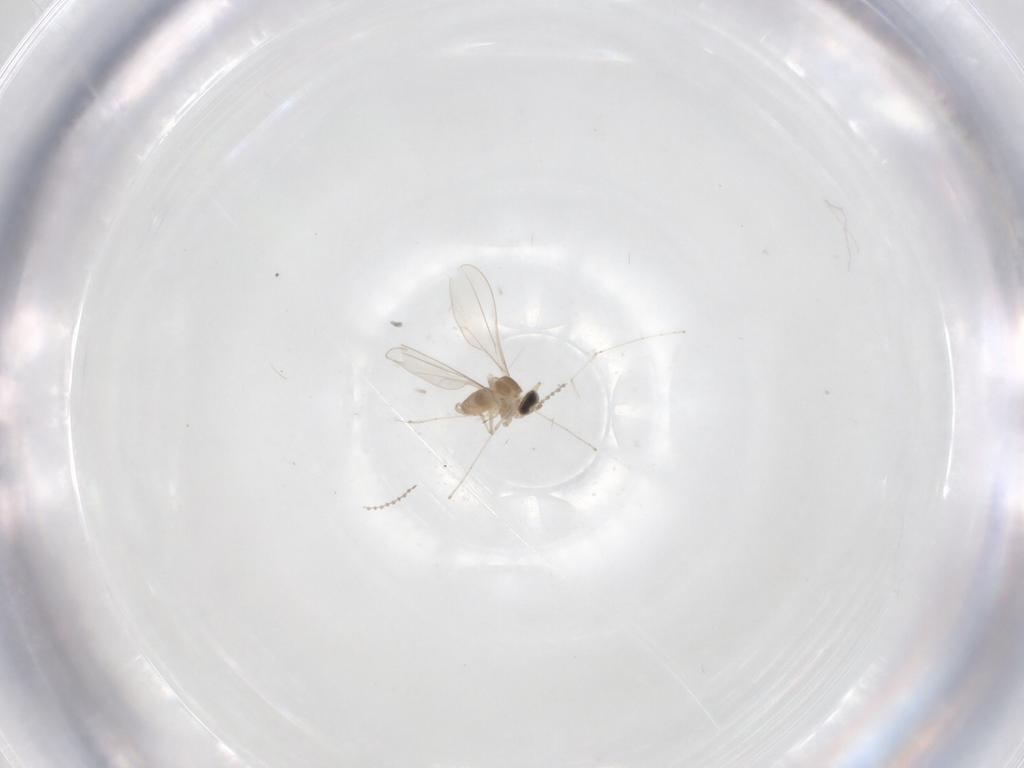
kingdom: Animalia
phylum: Arthropoda
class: Insecta
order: Diptera
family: Cecidomyiidae
